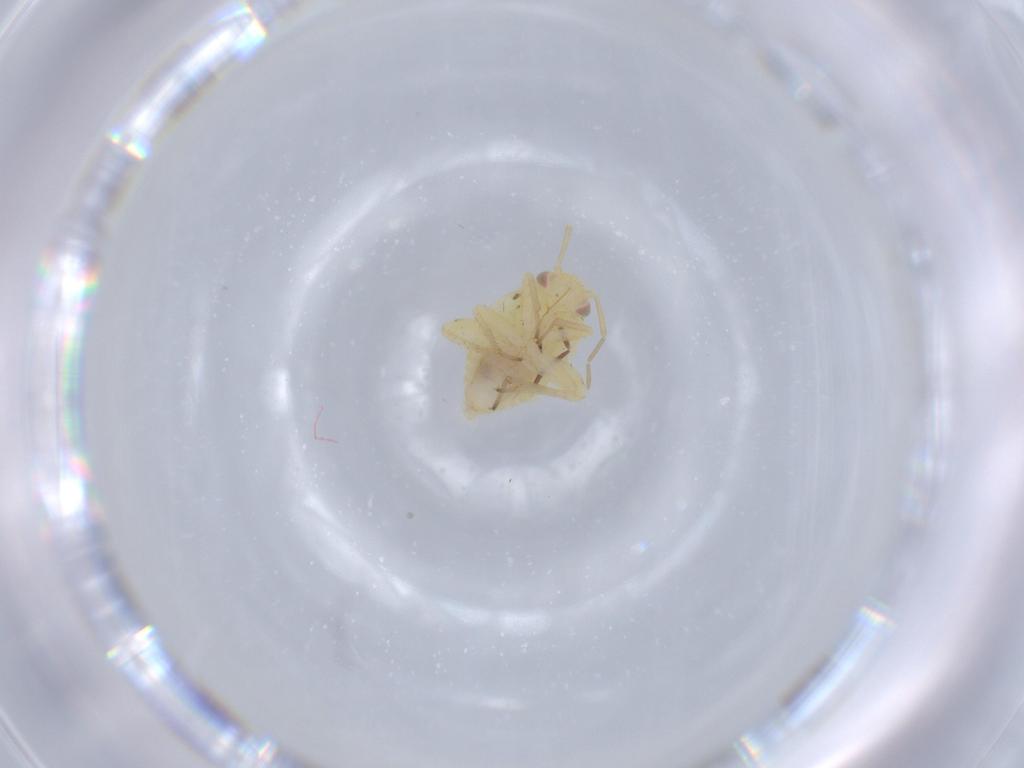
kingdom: Animalia
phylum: Arthropoda
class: Insecta
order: Hemiptera
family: Miridae
